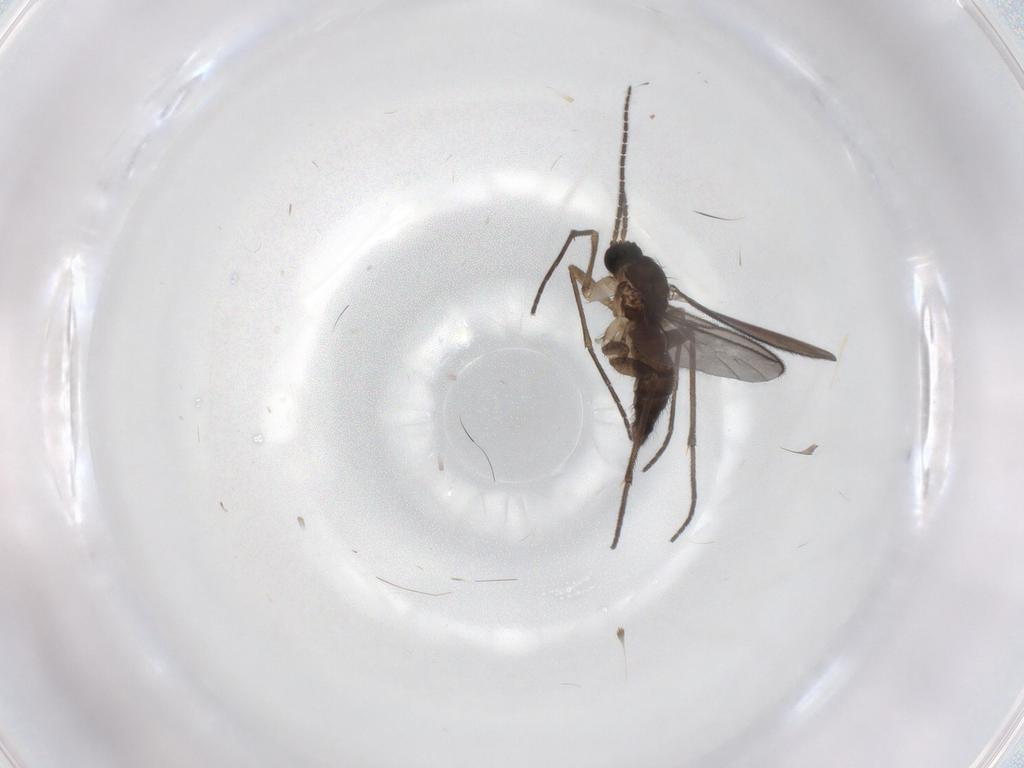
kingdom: Animalia
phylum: Arthropoda
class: Insecta
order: Diptera
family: Sciaridae
